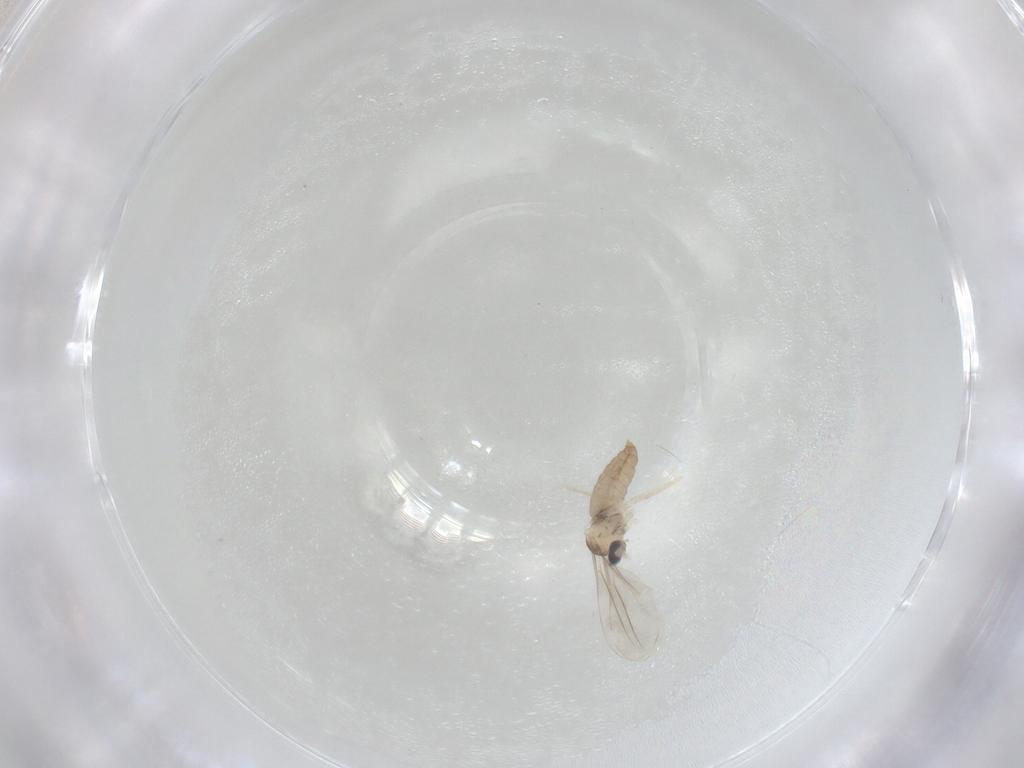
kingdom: Animalia
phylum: Arthropoda
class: Insecta
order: Diptera
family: Cecidomyiidae
